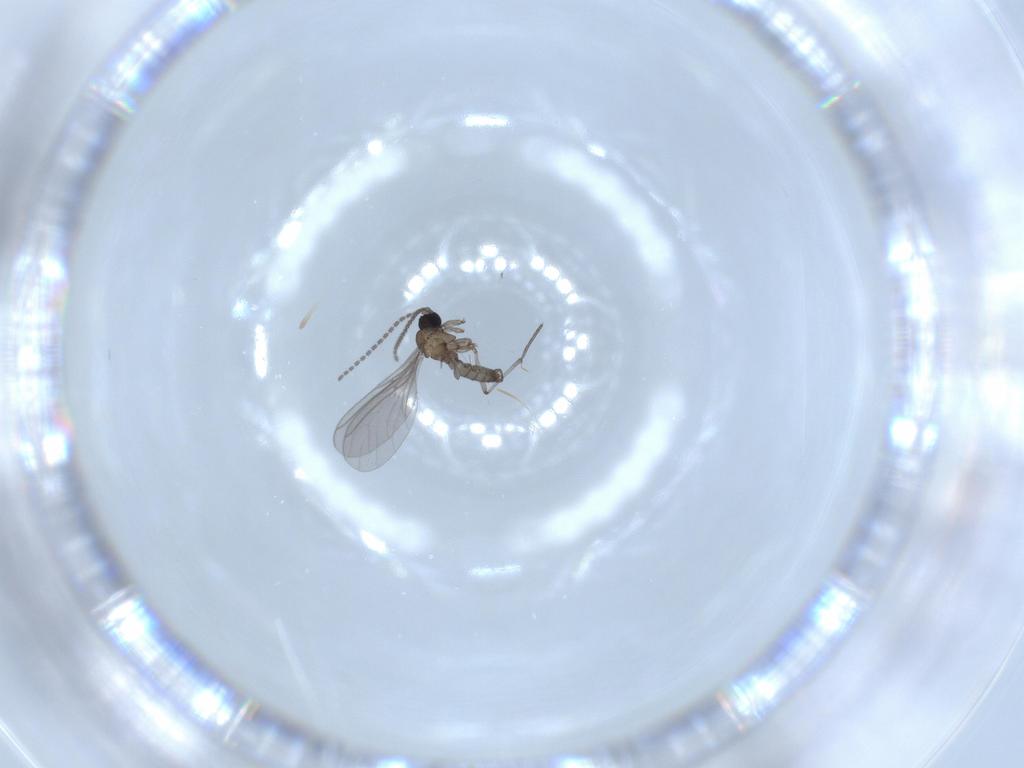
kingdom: Animalia
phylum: Arthropoda
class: Insecta
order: Diptera
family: Sciaridae
